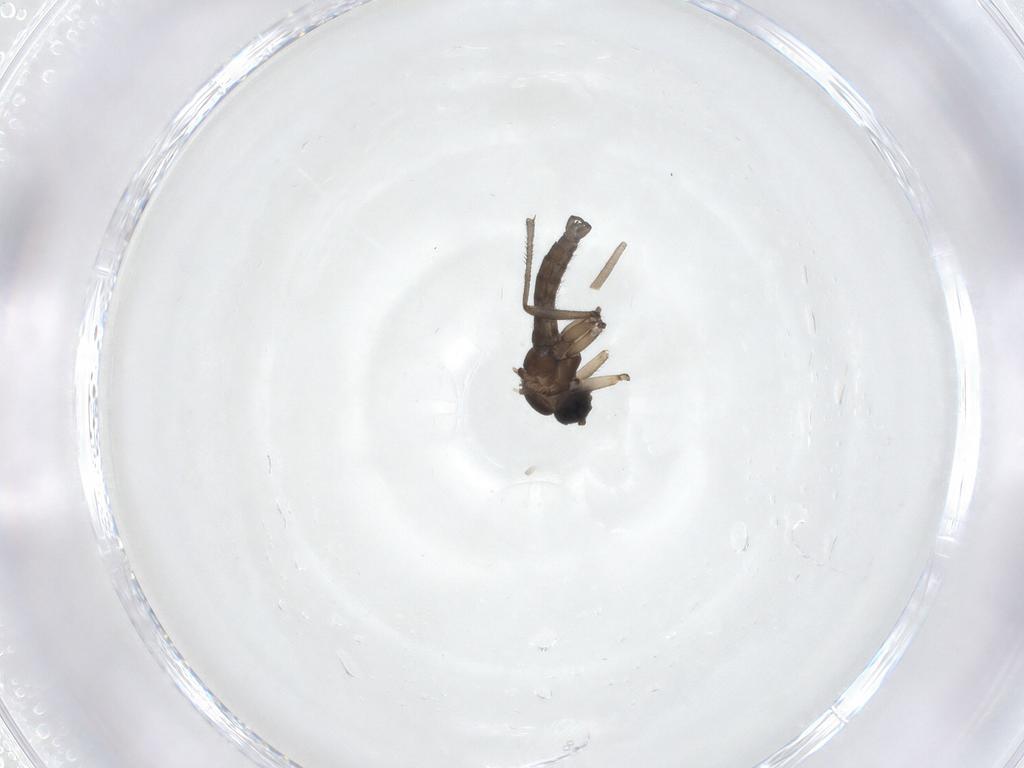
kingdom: Animalia
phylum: Arthropoda
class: Insecta
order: Diptera
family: Sciaridae
